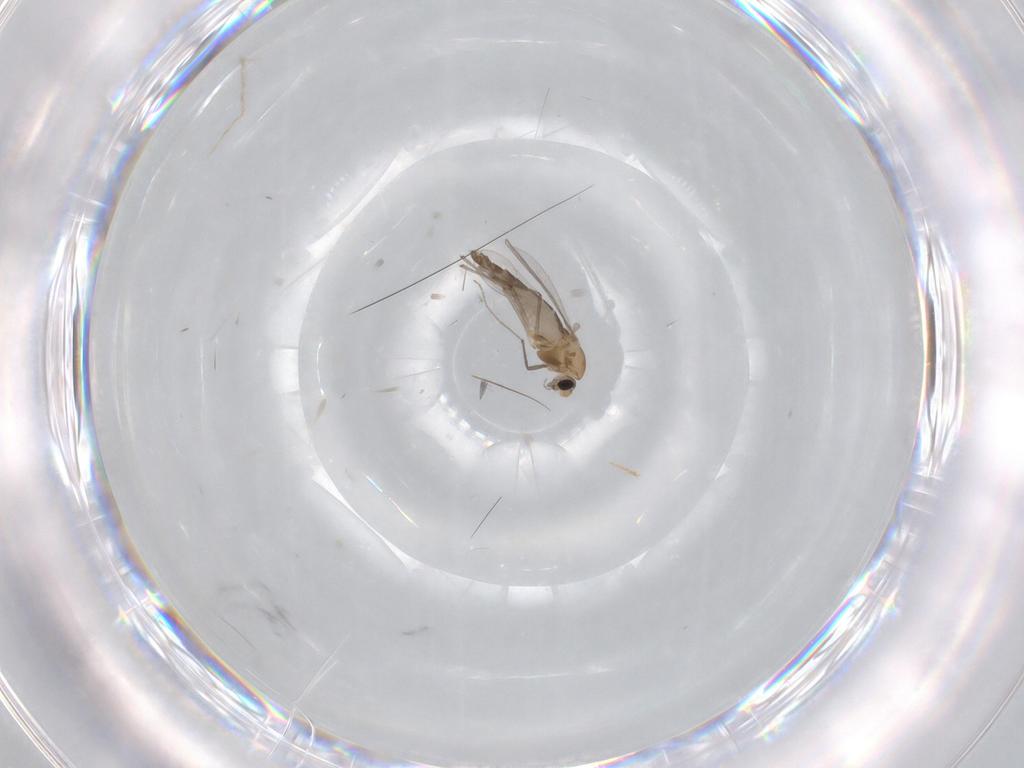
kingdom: Animalia
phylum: Arthropoda
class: Insecta
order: Diptera
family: Chironomidae
